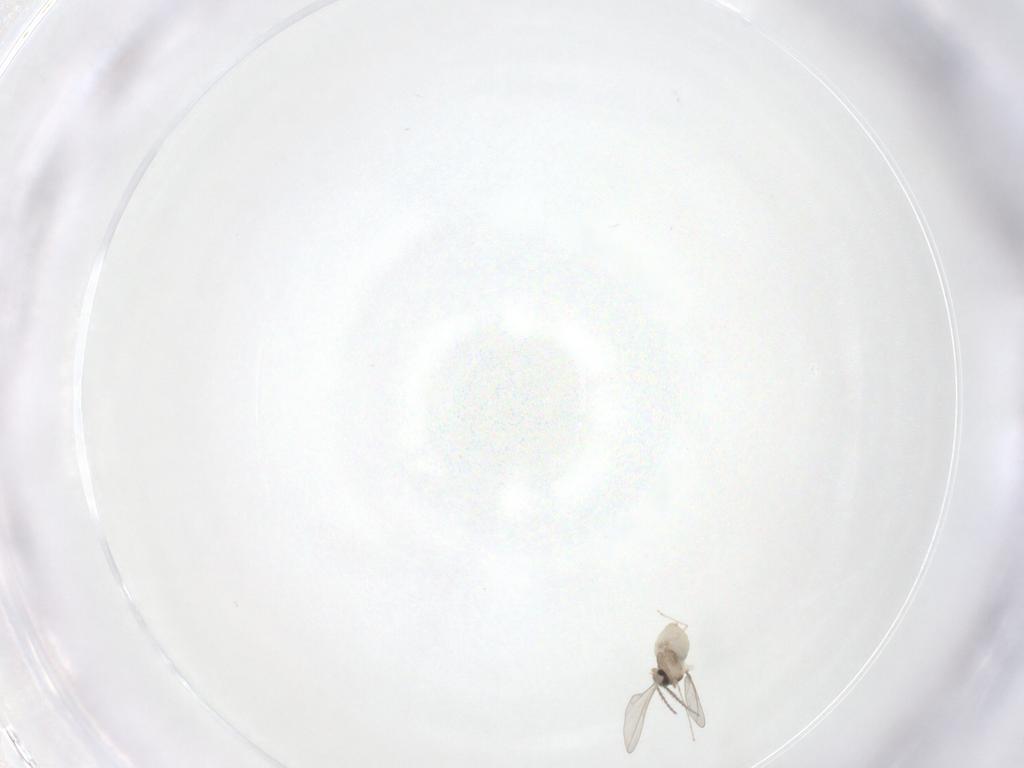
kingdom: Animalia
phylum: Arthropoda
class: Insecta
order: Diptera
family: Cecidomyiidae
